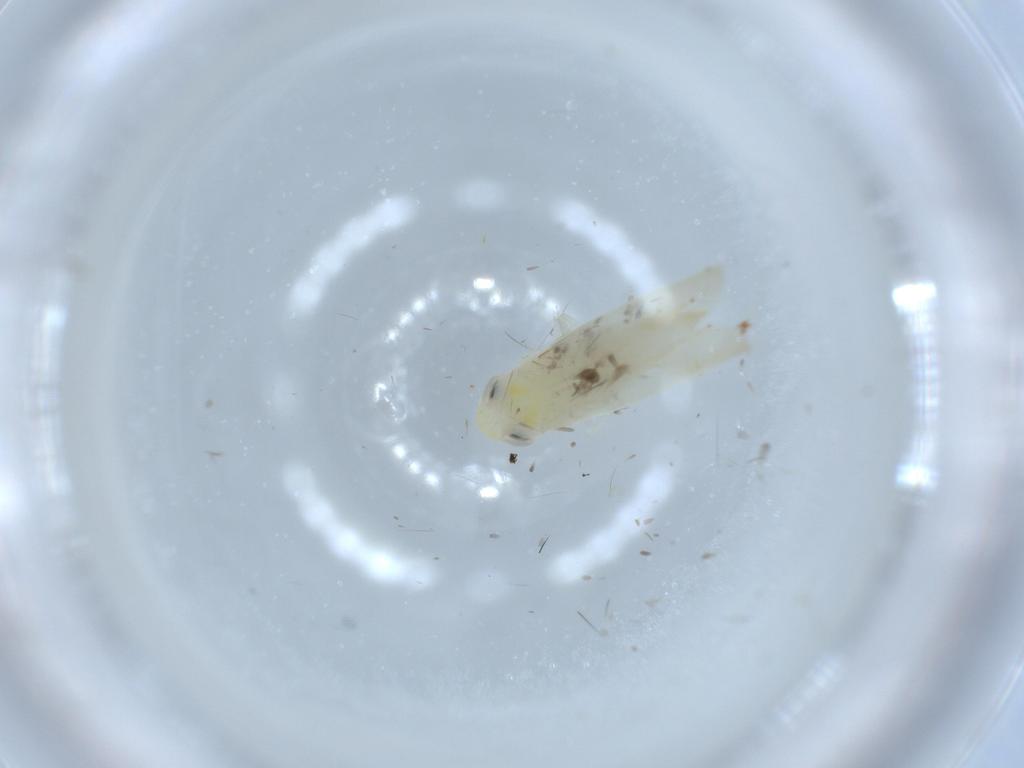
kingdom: Animalia
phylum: Arthropoda
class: Insecta
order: Hemiptera
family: Cicadellidae
